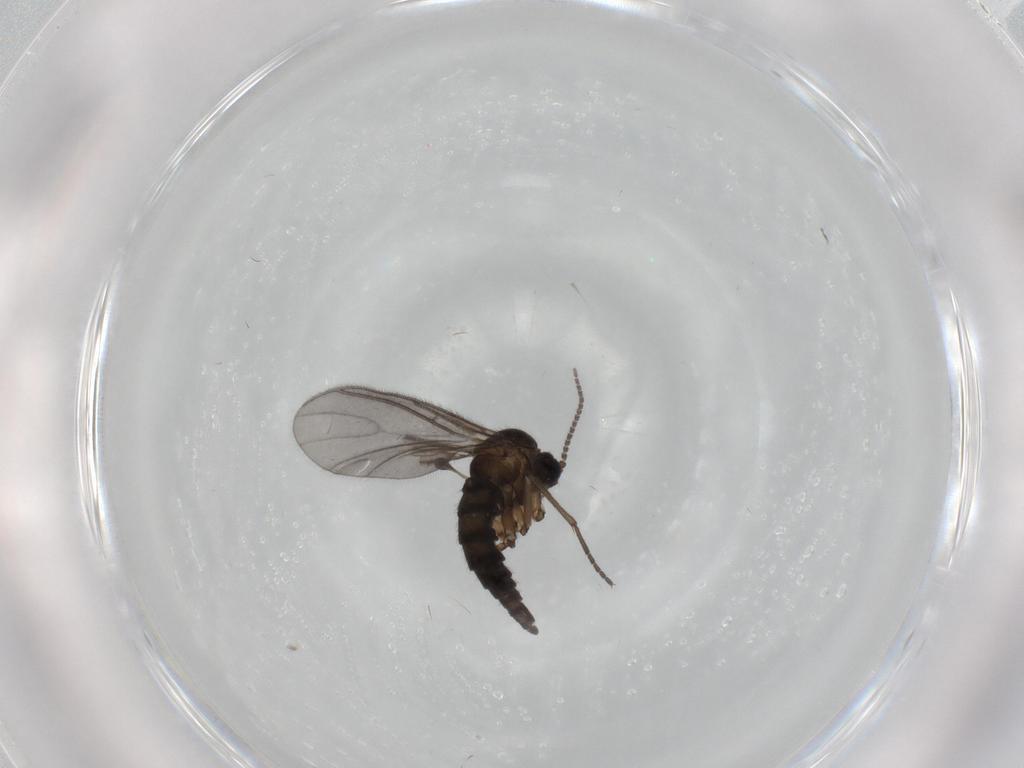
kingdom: Animalia
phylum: Arthropoda
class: Insecta
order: Diptera
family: Sciaridae
